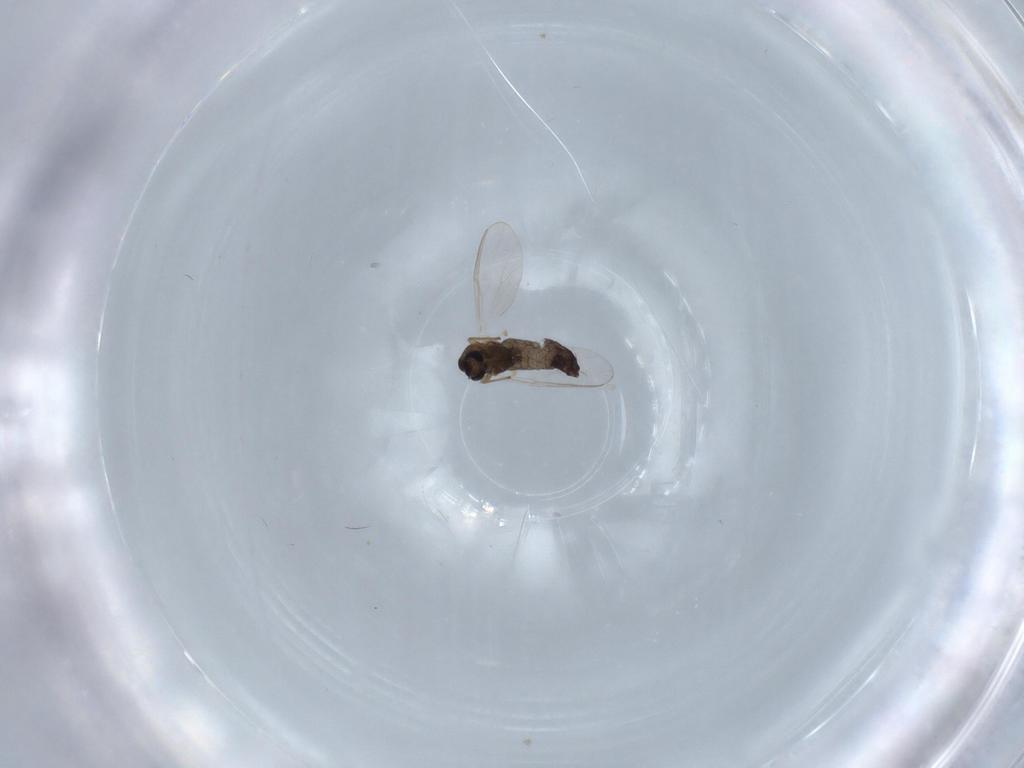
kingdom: Animalia
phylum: Arthropoda
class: Insecta
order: Diptera
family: Chironomidae
